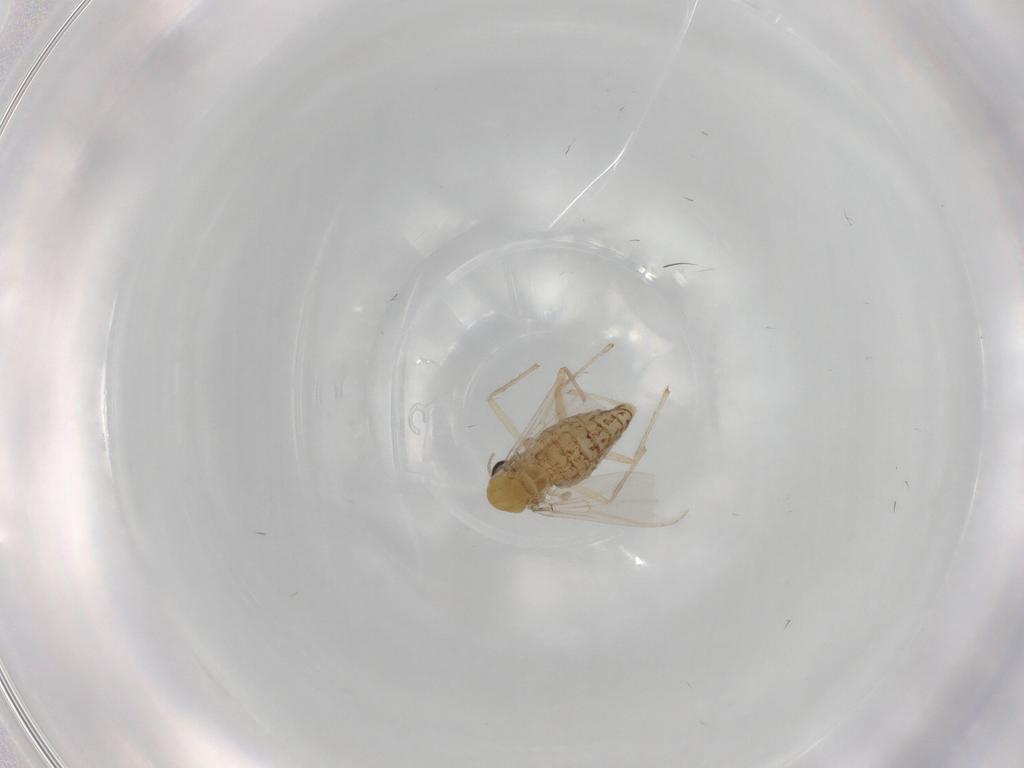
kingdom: Animalia
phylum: Arthropoda
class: Insecta
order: Diptera
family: Chironomidae
